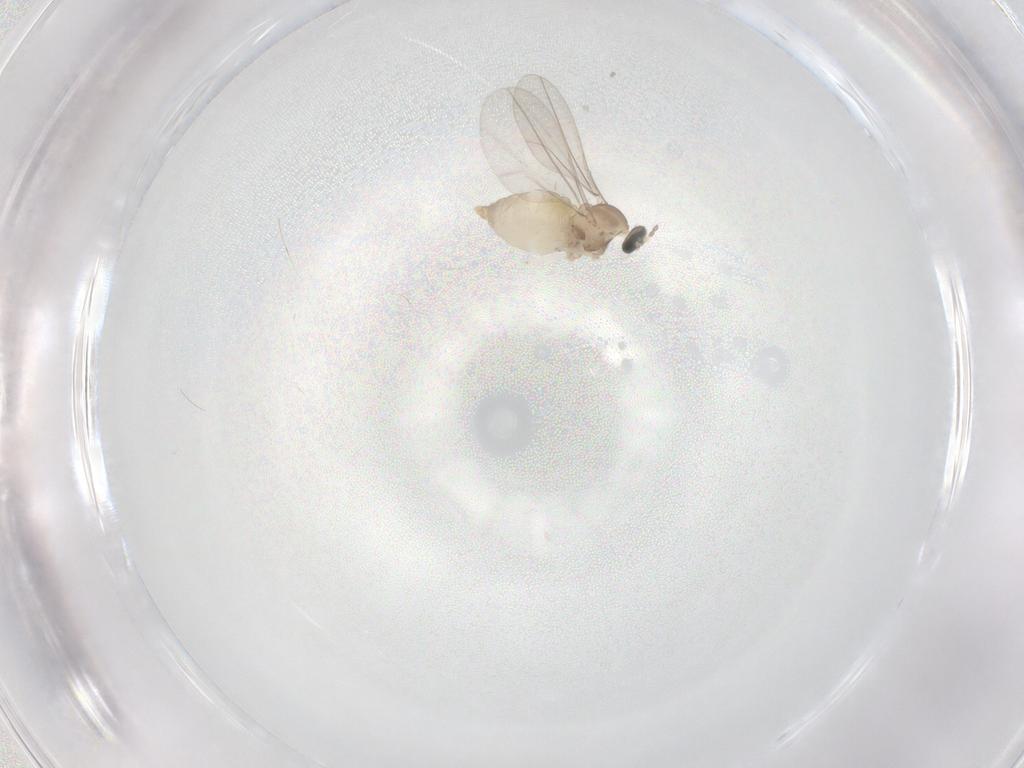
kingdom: Animalia
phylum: Arthropoda
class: Insecta
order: Diptera
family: Cecidomyiidae
